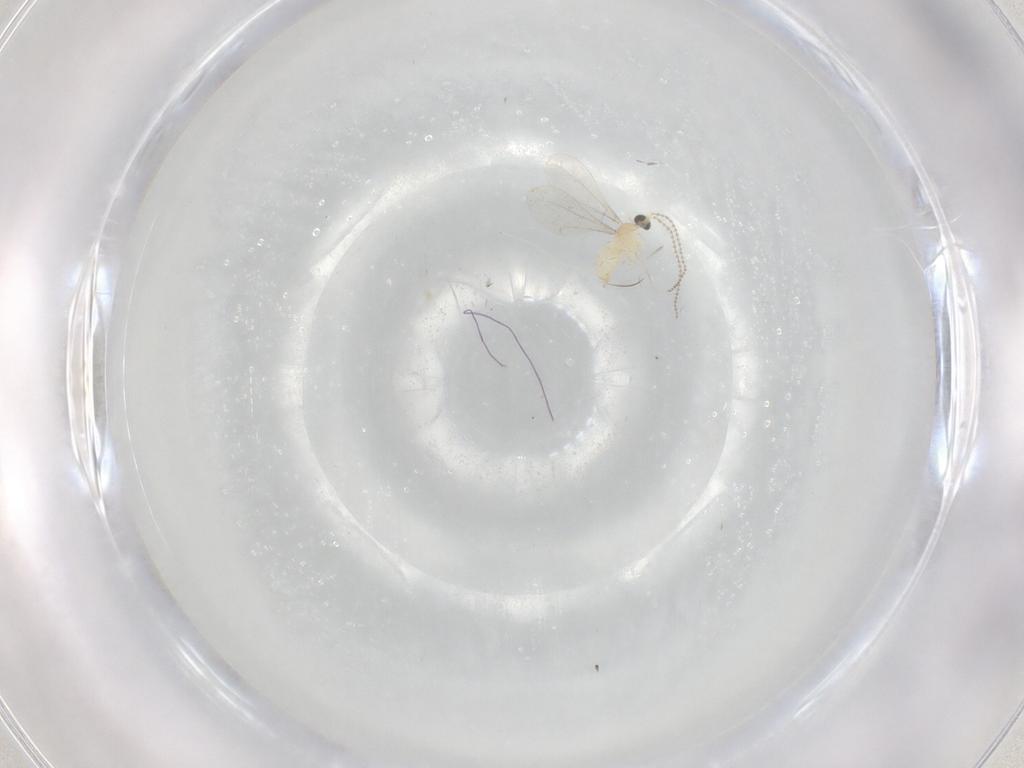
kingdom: Animalia
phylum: Arthropoda
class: Insecta
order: Diptera
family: Cecidomyiidae
